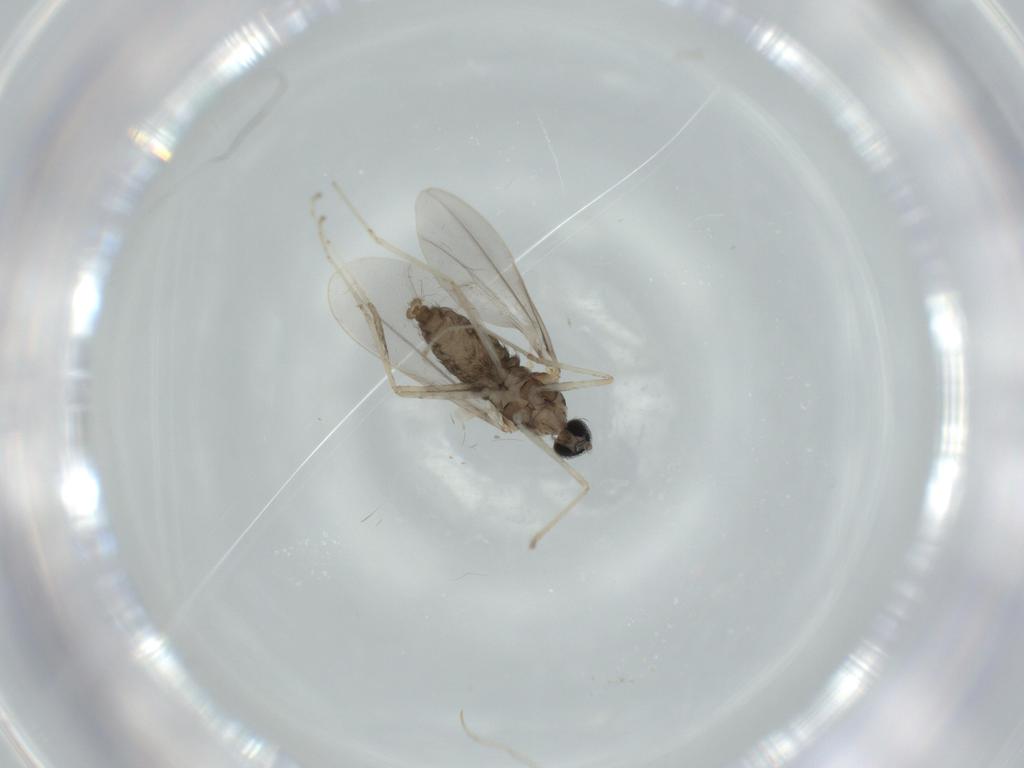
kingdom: Animalia
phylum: Arthropoda
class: Insecta
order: Diptera
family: Cecidomyiidae
